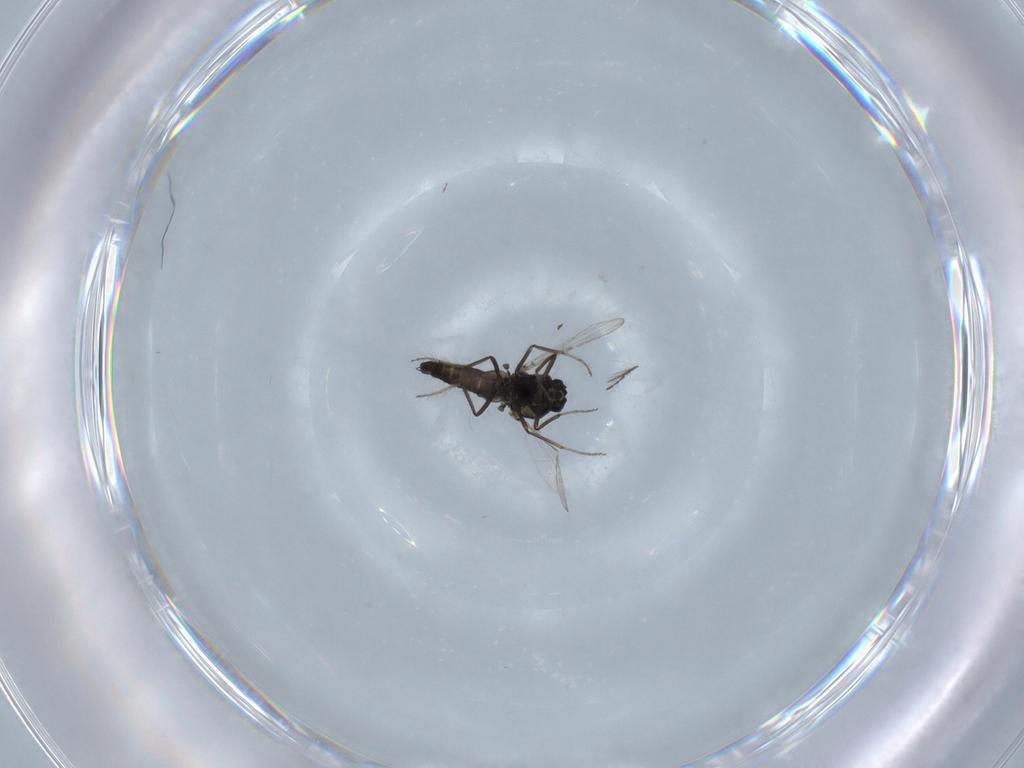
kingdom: Animalia
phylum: Arthropoda
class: Insecta
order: Diptera
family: Ceratopogonidae
